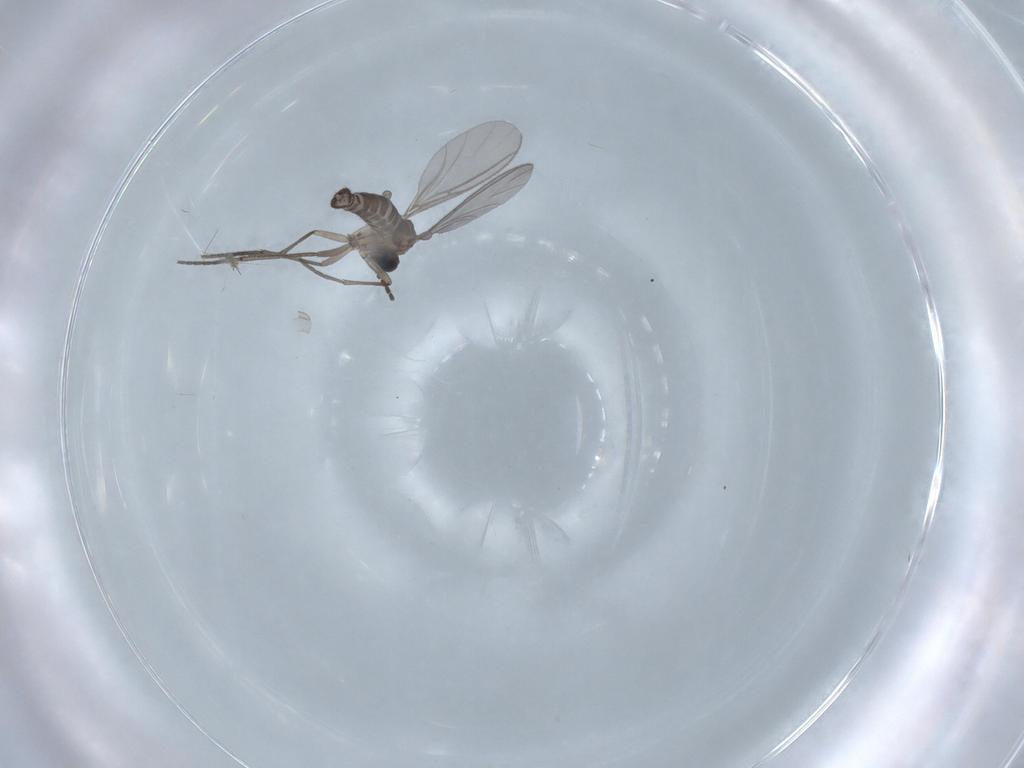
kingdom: Animalia
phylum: Arthropoda
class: Insecta
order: Diptera
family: Sciaridae
